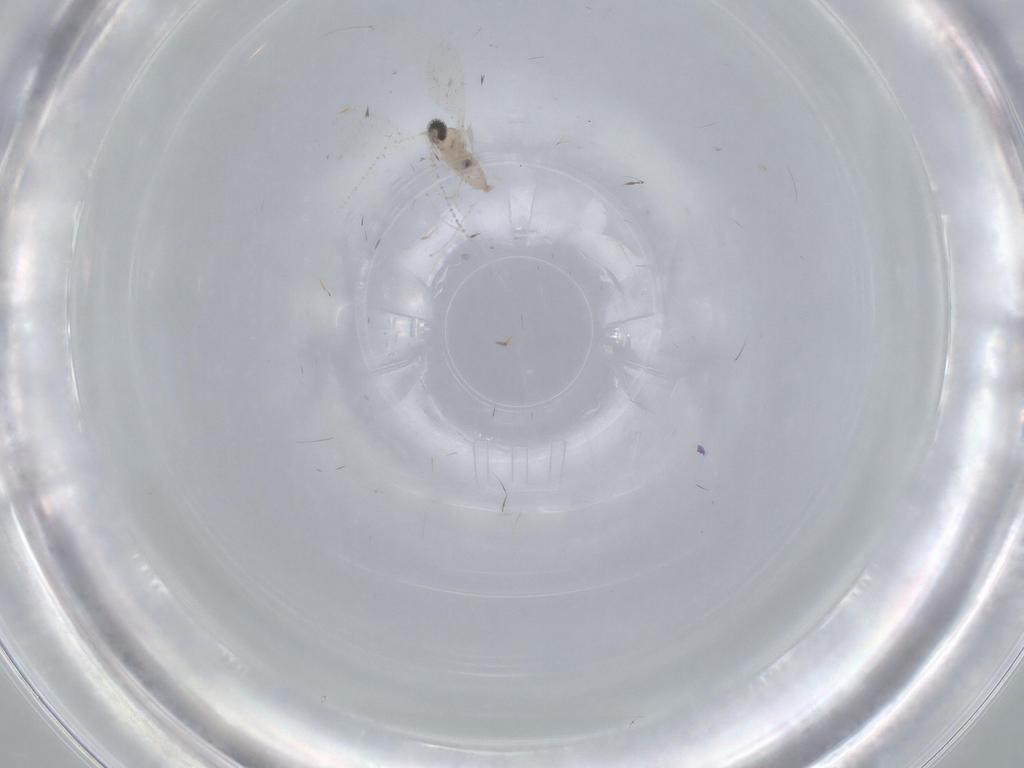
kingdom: Animalia
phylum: Arthropoda
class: Insecta
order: Diptera
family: Cecidomyiidae
